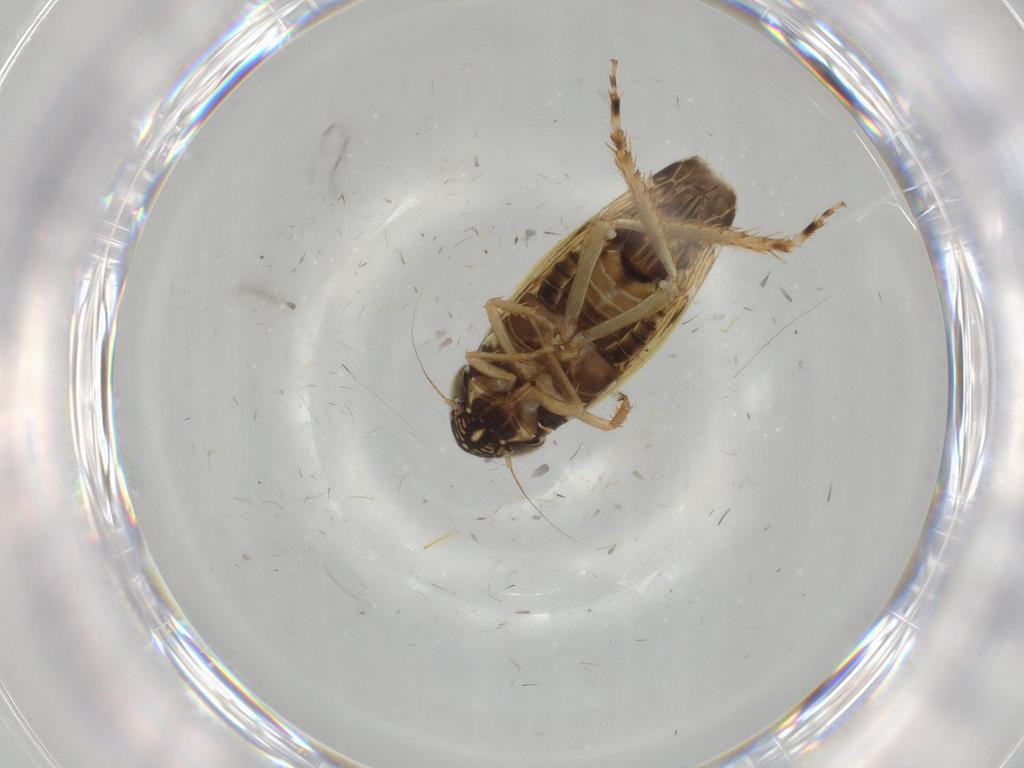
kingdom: Animalia
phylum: Arthropoda
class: Insecta
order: Hemiptera
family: Cicadellidae
